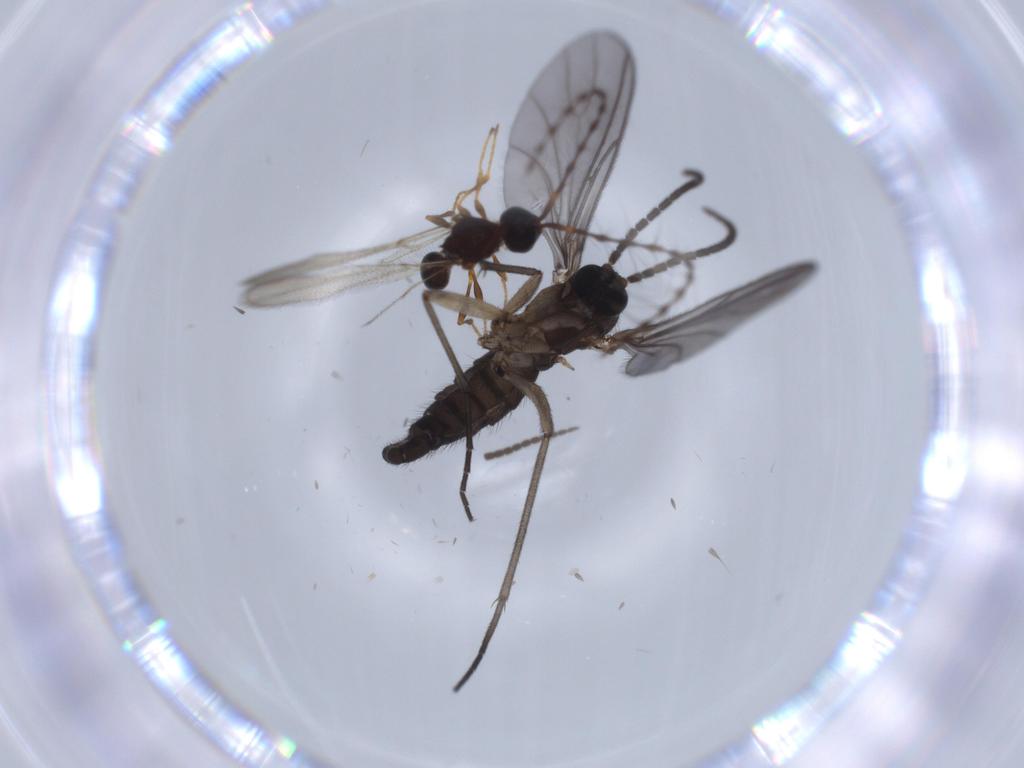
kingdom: Animalia
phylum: Arthropoda
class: Insecta
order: Diptera
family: Sciaridae
